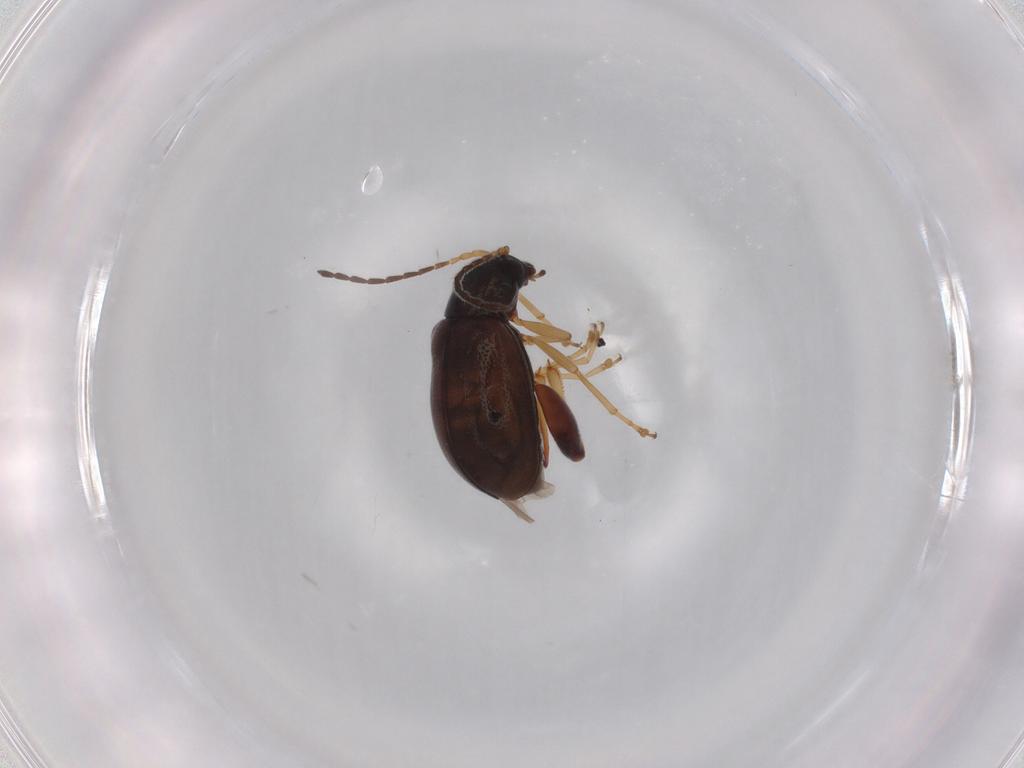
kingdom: Animalia
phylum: Arthropoda
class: Insecta
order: Coleoptera
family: Chrysomelidae
